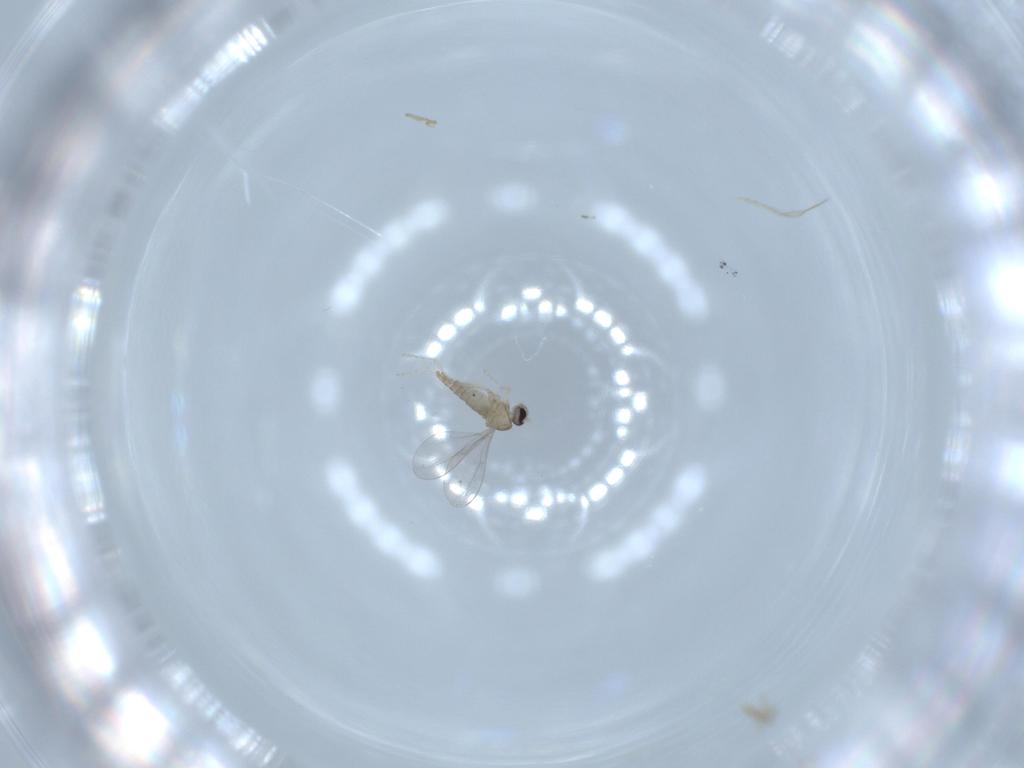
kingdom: Animalia
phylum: Arthropoda
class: Insecta
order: Diptera
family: Cecidomyiidae
